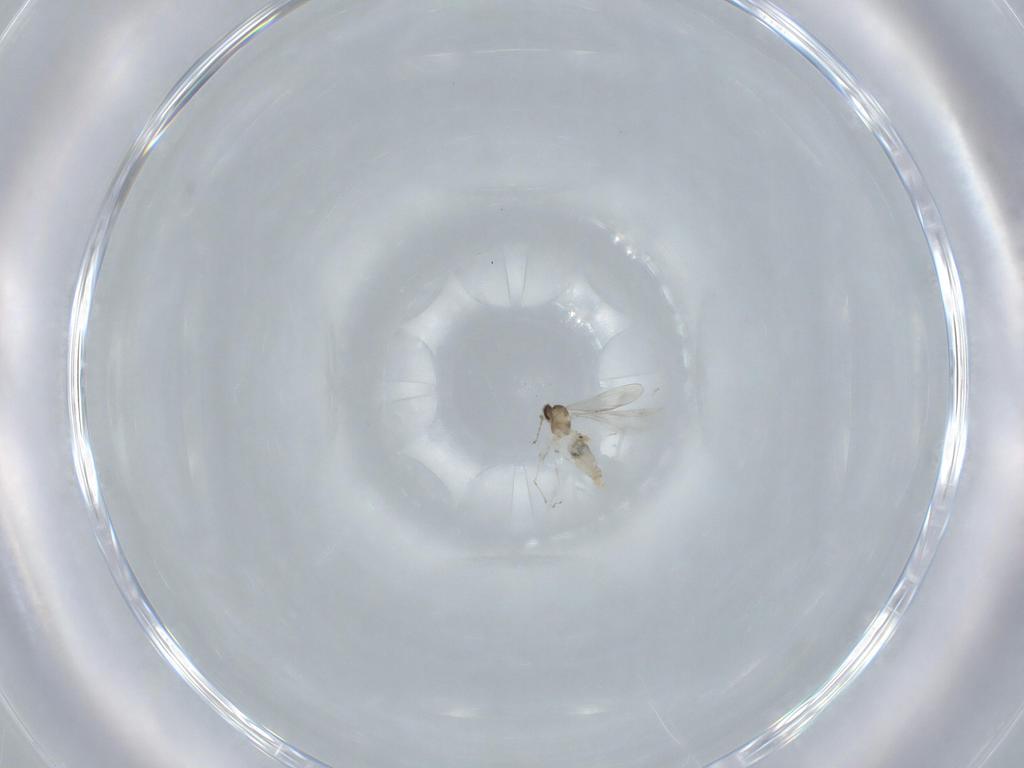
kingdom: Animalia
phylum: Arthropoda
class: Insecta
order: Diptera
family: Cecidomyiidae
